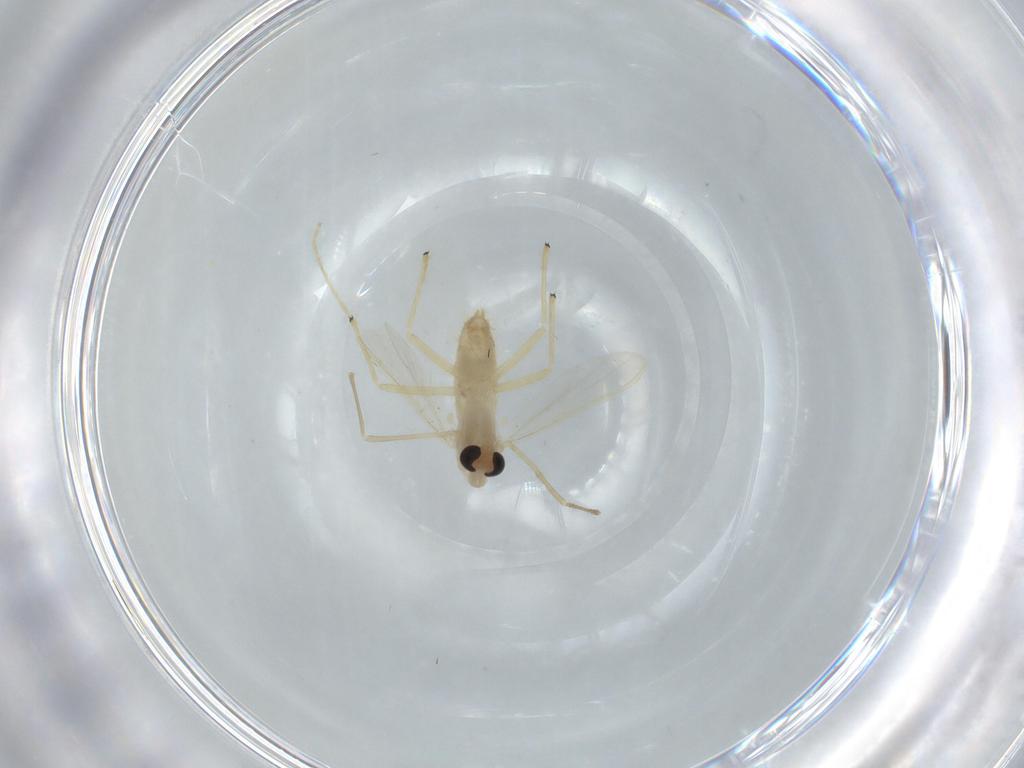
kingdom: Animalia
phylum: Arthropoda
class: Insecta
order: Diptera
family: Chironomidae
